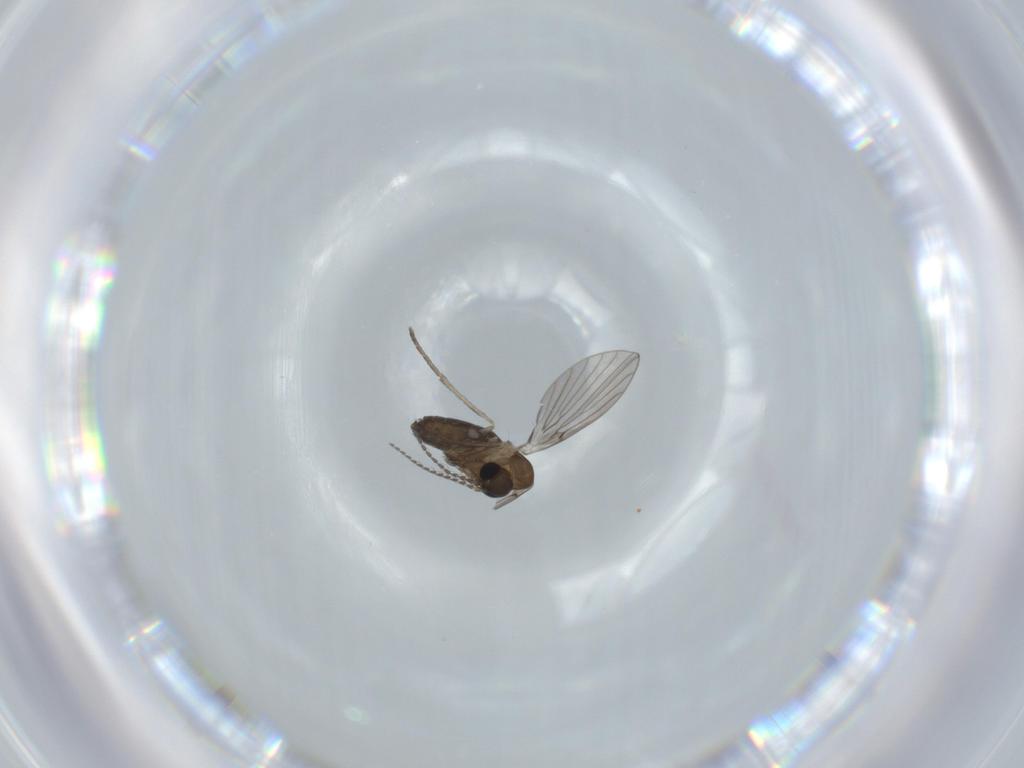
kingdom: Animalia
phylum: Arthropoda
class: Insecta
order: Diptera
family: Psychodidae
